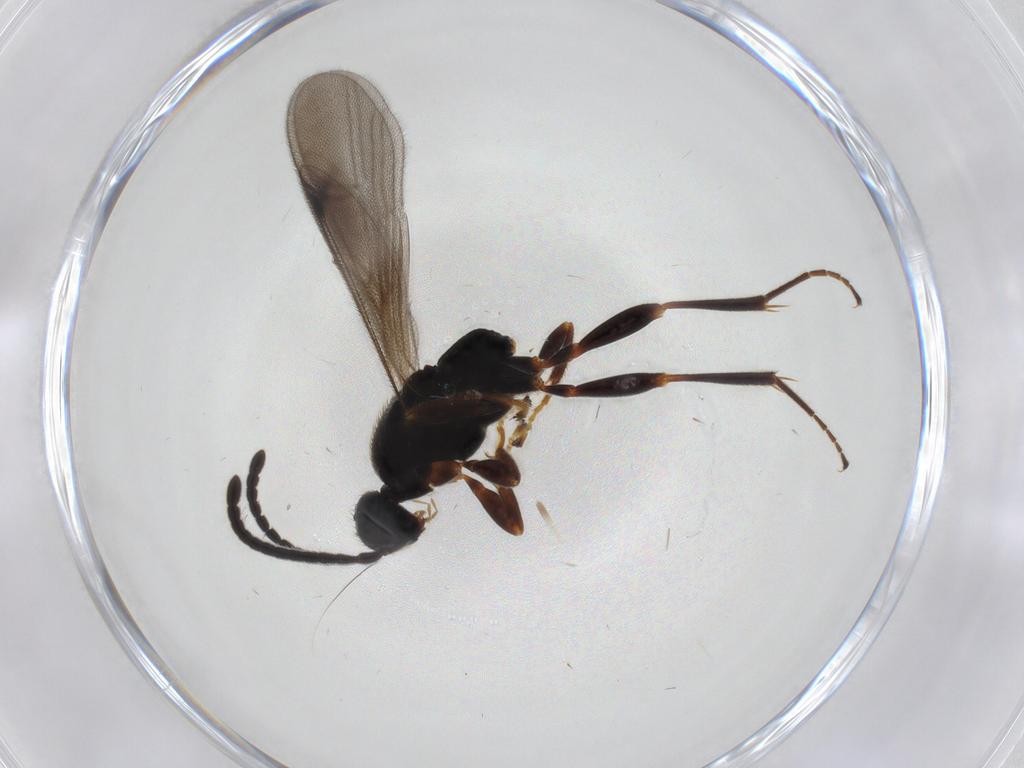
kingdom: Animalia
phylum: Arthropoda
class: Insecta
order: Hymenoptera
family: Proctotrupidae
